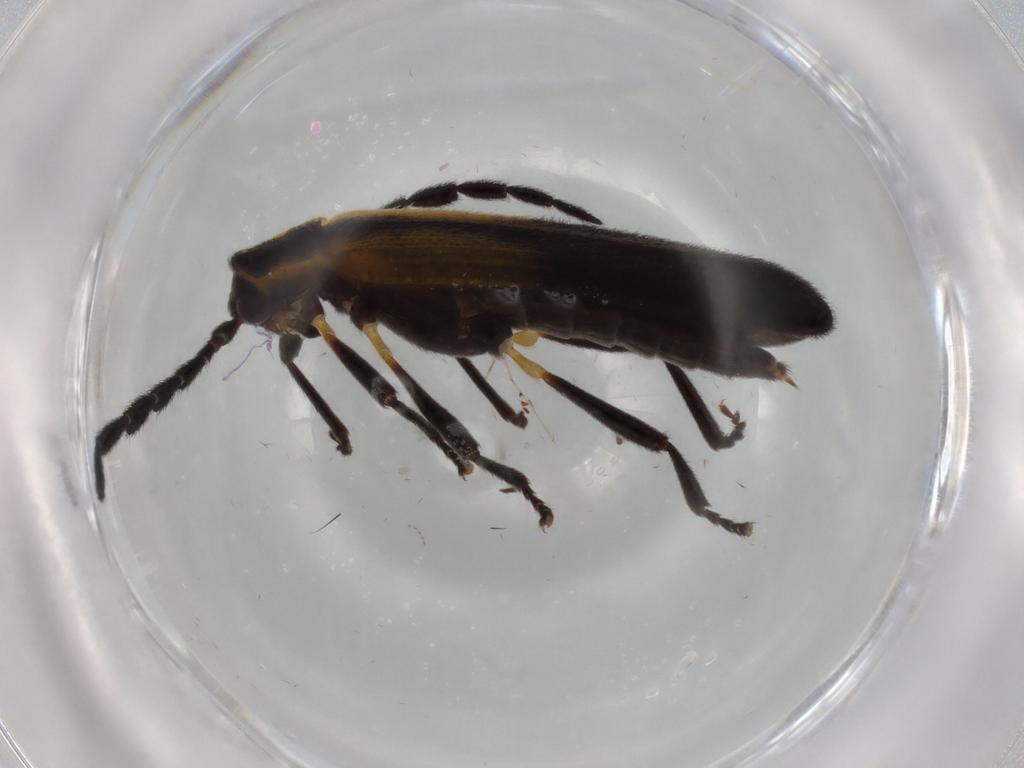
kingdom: Animalia
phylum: Arthropoda
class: Insecta
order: Coleoptera
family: Lycidae
